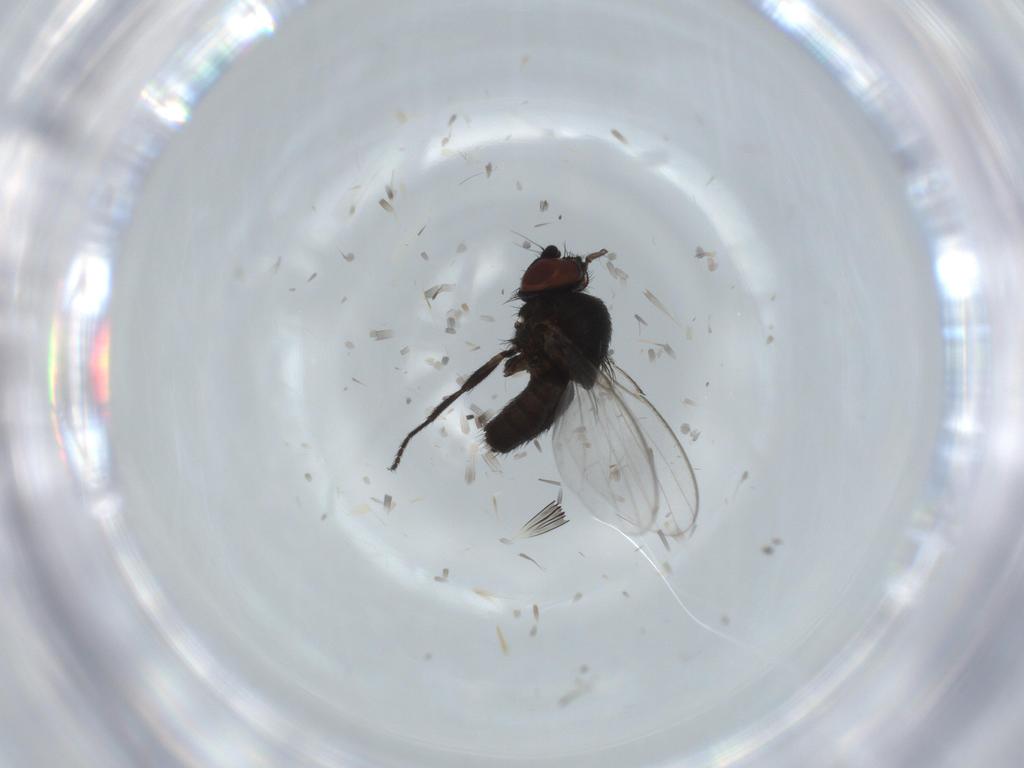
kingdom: Animalia
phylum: Arthropoda
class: Insecta
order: Diptera
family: Milichiidae
